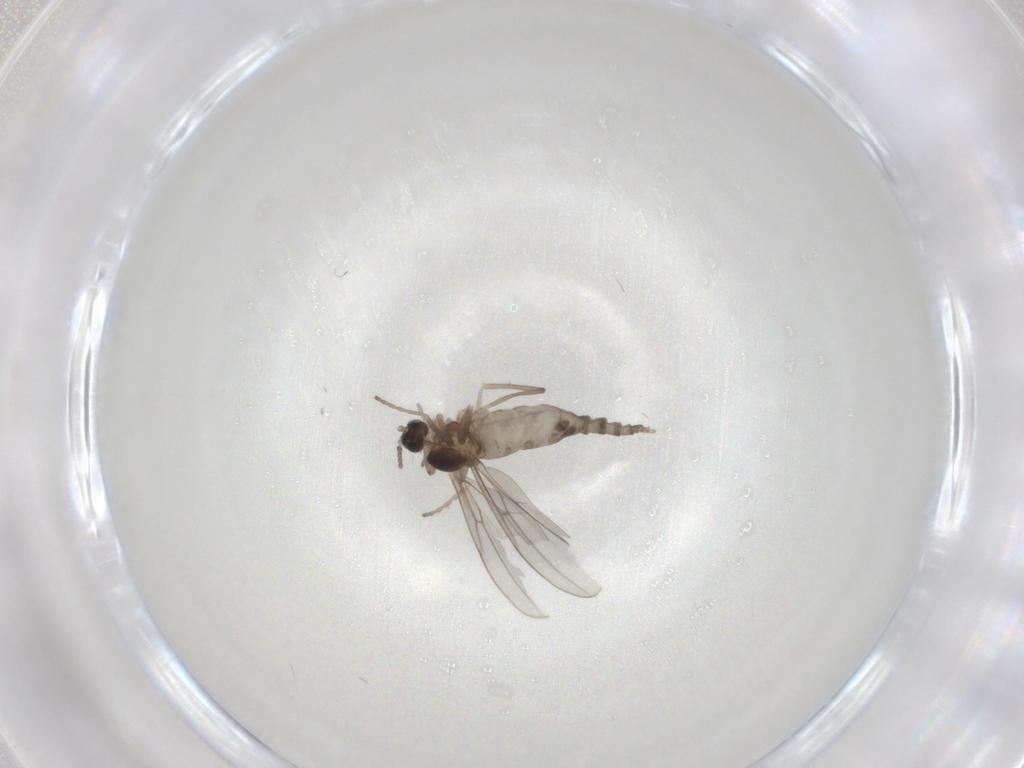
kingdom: Animalia
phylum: Arthropoda
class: Insecta
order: Diptera
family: Cecidomyiidae
